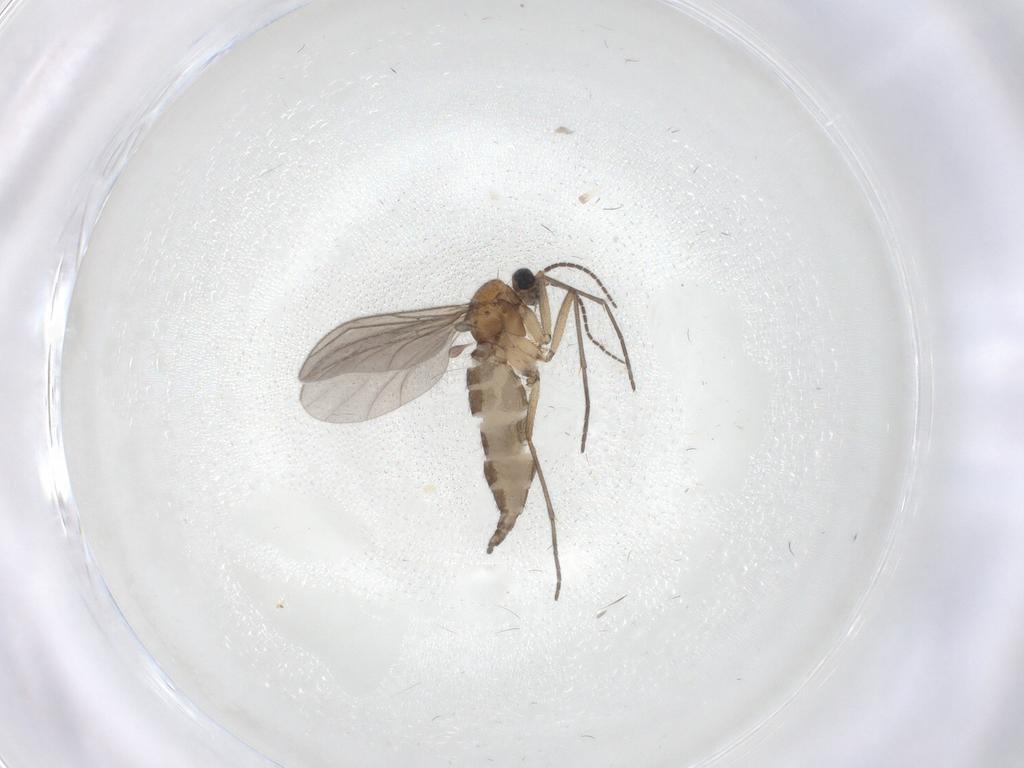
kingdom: Animalia
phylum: Arthropoda
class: Insecta
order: Diptera
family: Sciaridae
